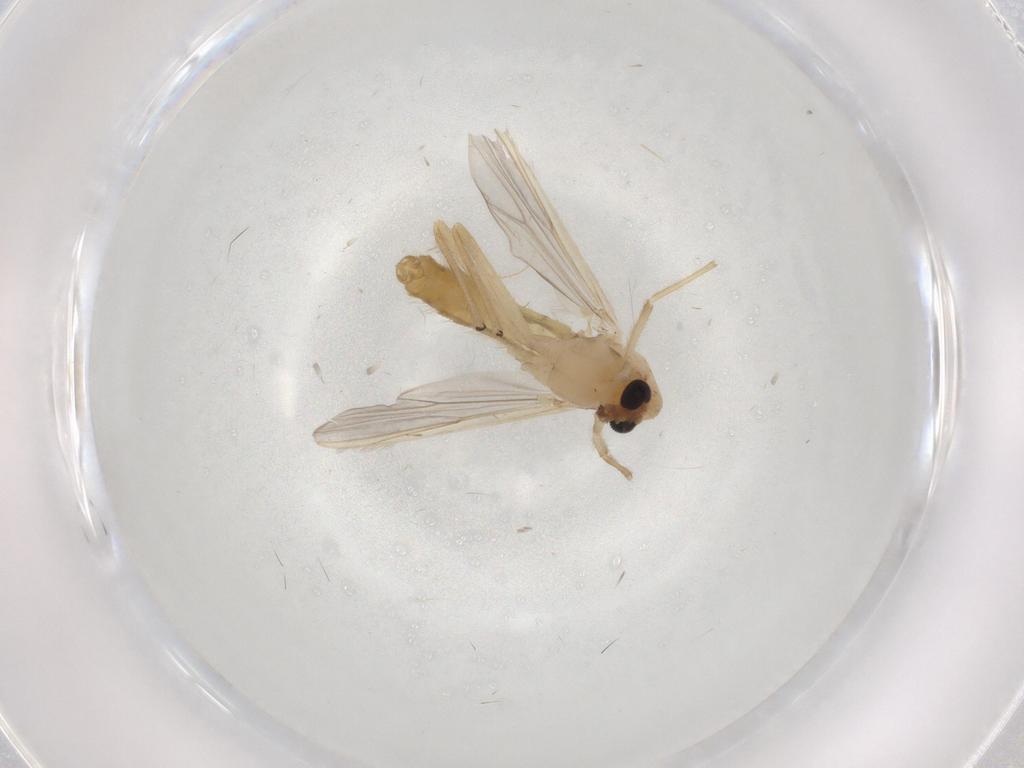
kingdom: Animalia
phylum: Arthropoda
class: Insecta
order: Diptera
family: Chironomidae
